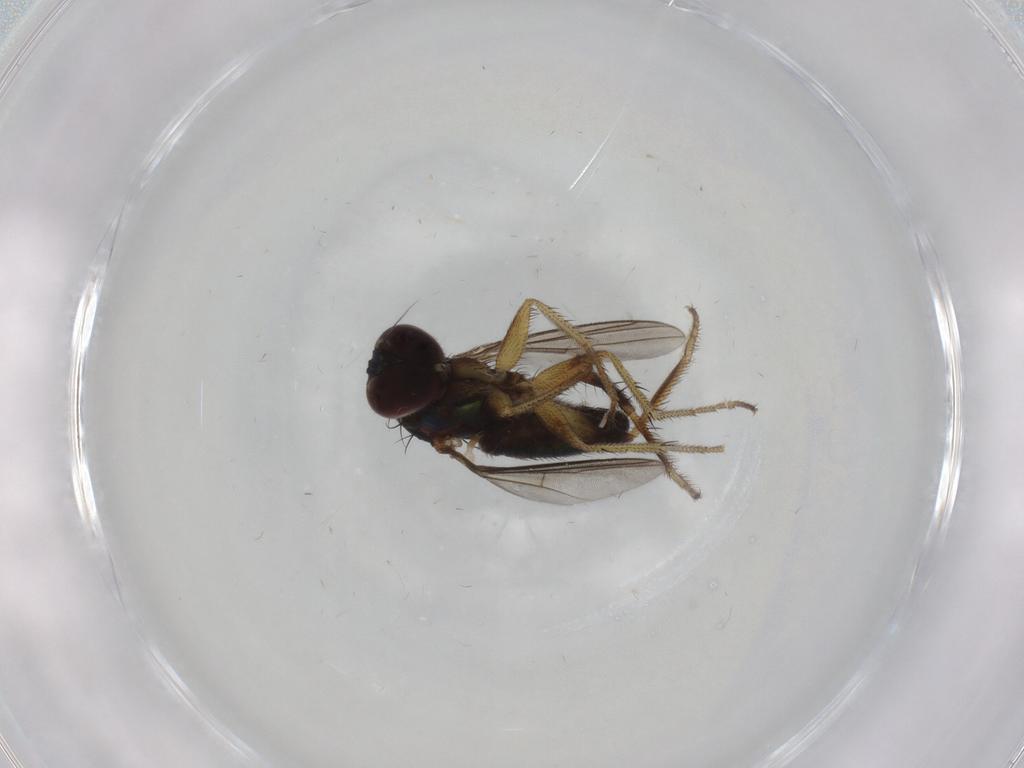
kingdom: Animalia
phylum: Arthropoda
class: Insecta
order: Diptera
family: Dolichopodidae
